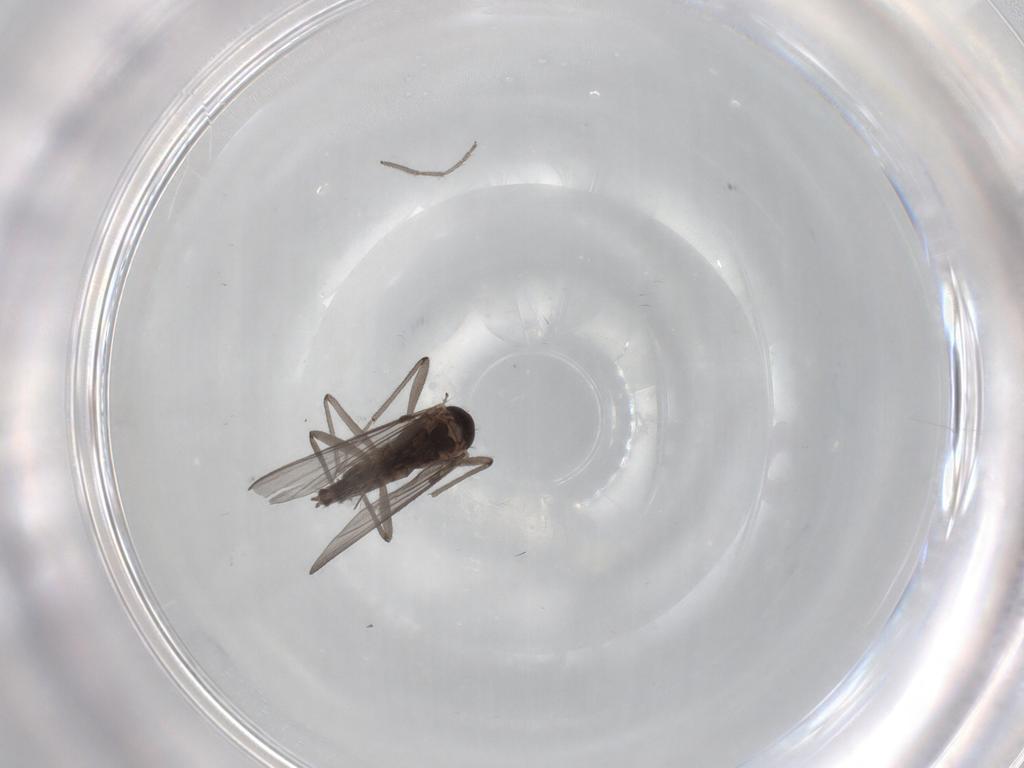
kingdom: Animalia
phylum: Arthropoda
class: Insecta
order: Diptera
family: Chironomidae
